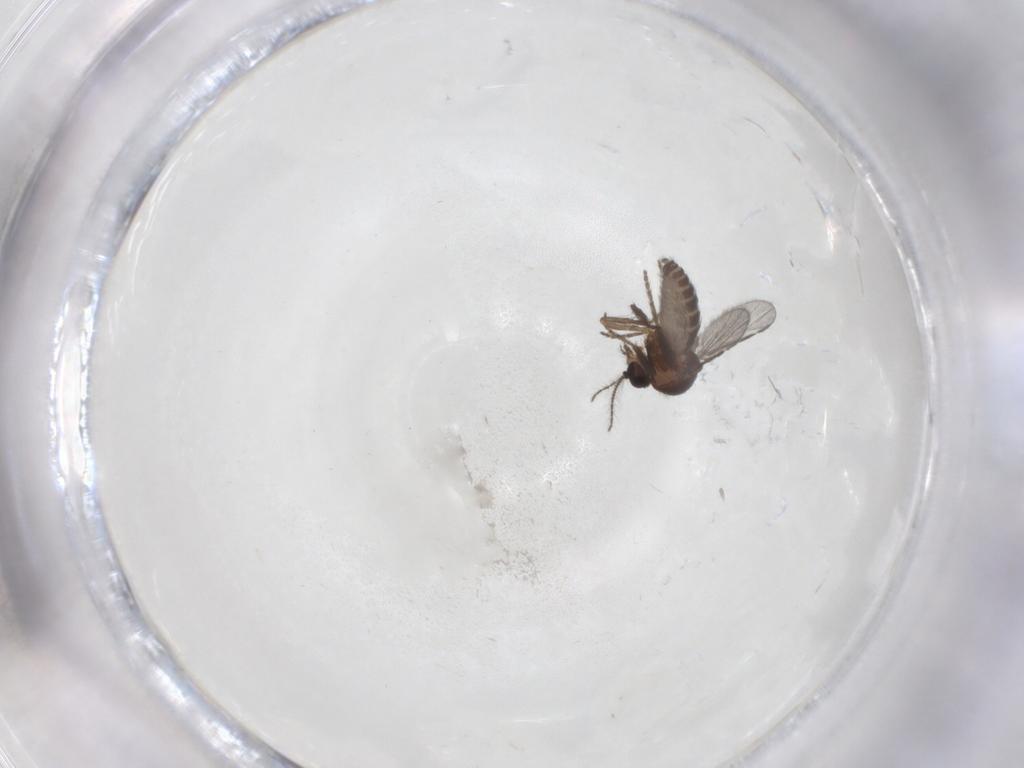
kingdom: Animalia
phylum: Arthropoda
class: Insecta
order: Diptera
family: Ceratopogonidae
